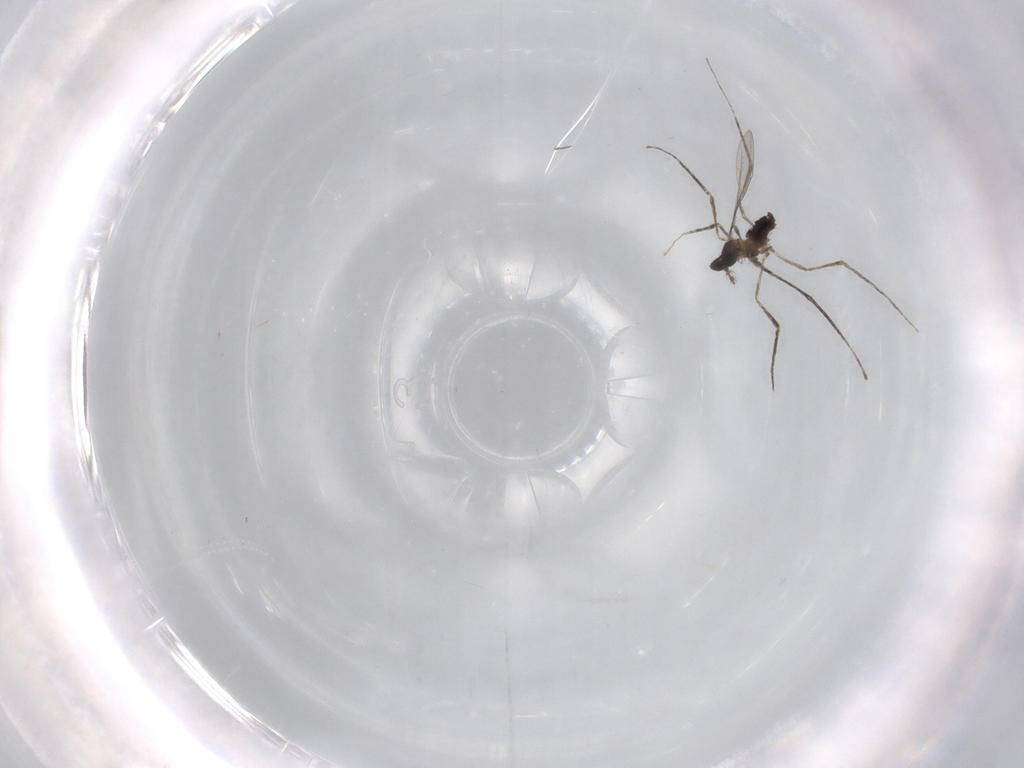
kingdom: Animalia
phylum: Arthropoda
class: Insecta
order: Diptera
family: Cecidomyiidae
